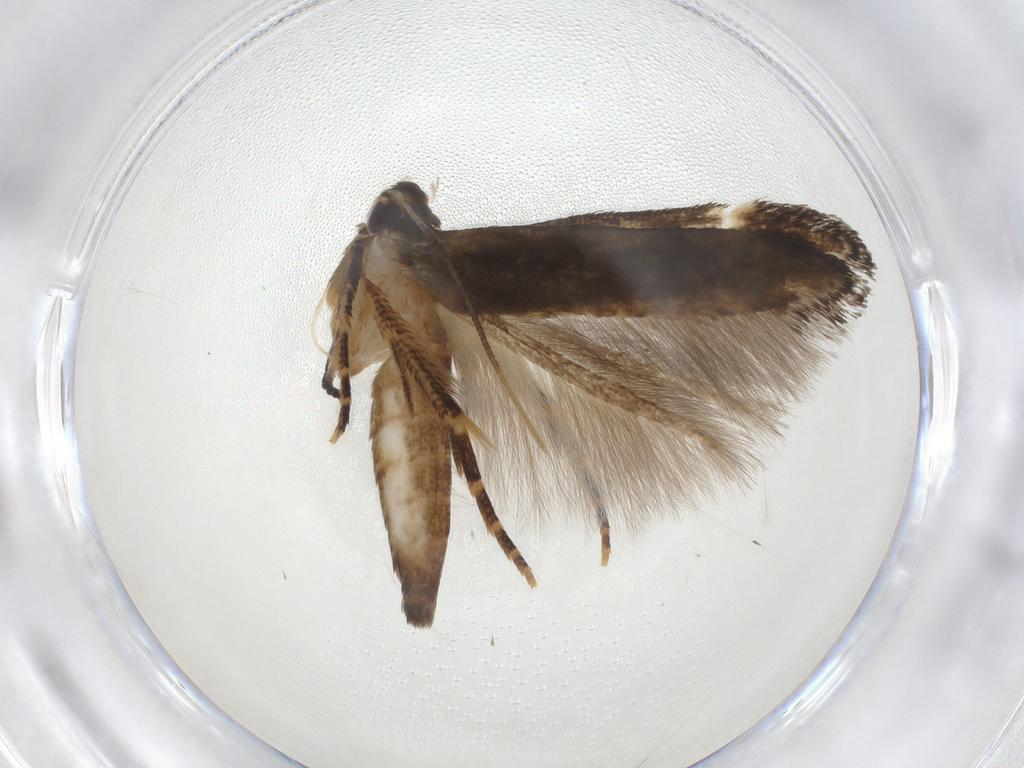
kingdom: Animalia
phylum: Arthropoda
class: Insecta
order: Lepidoptera
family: Cosmopterigidae
